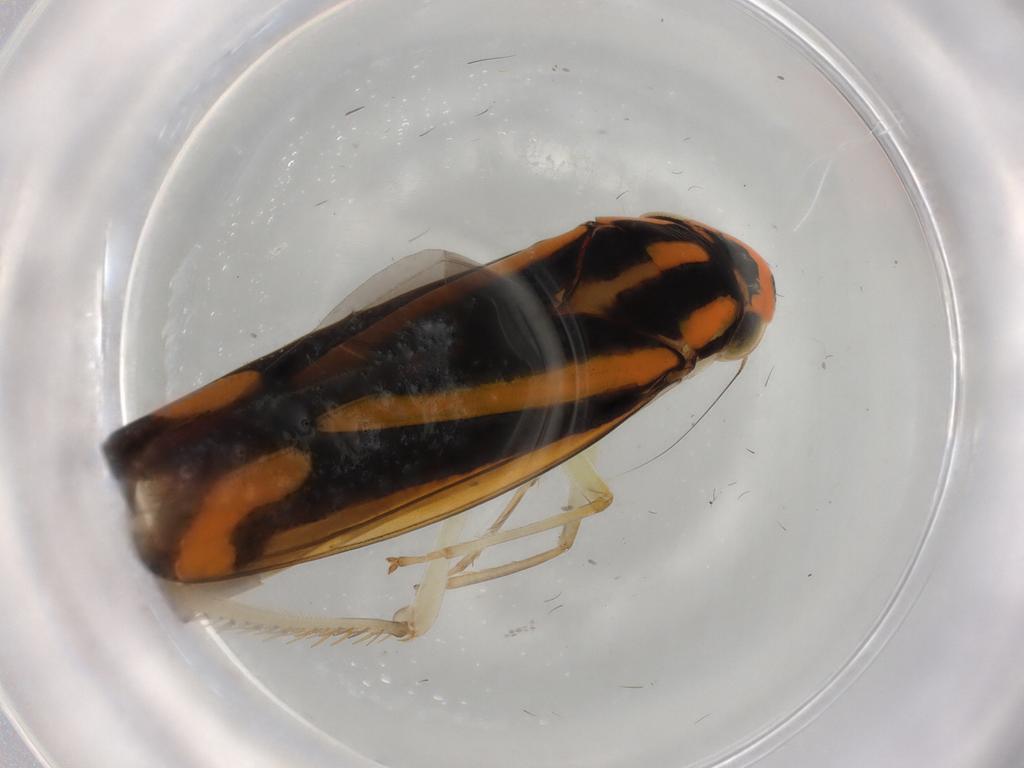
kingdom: Animalia
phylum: Arthropoda
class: Insecta
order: Hemiptera
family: Cicadellidae
